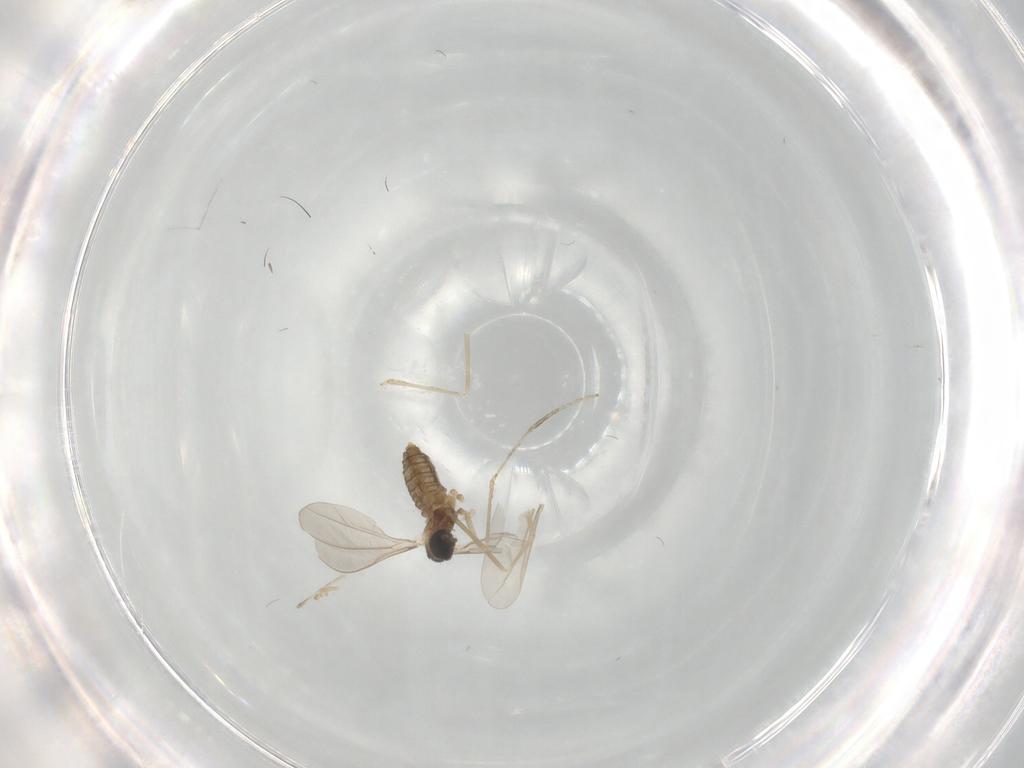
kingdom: Animalia
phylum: Arthropoda
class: Insecta
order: Diptera
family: Cecidomyiidae
